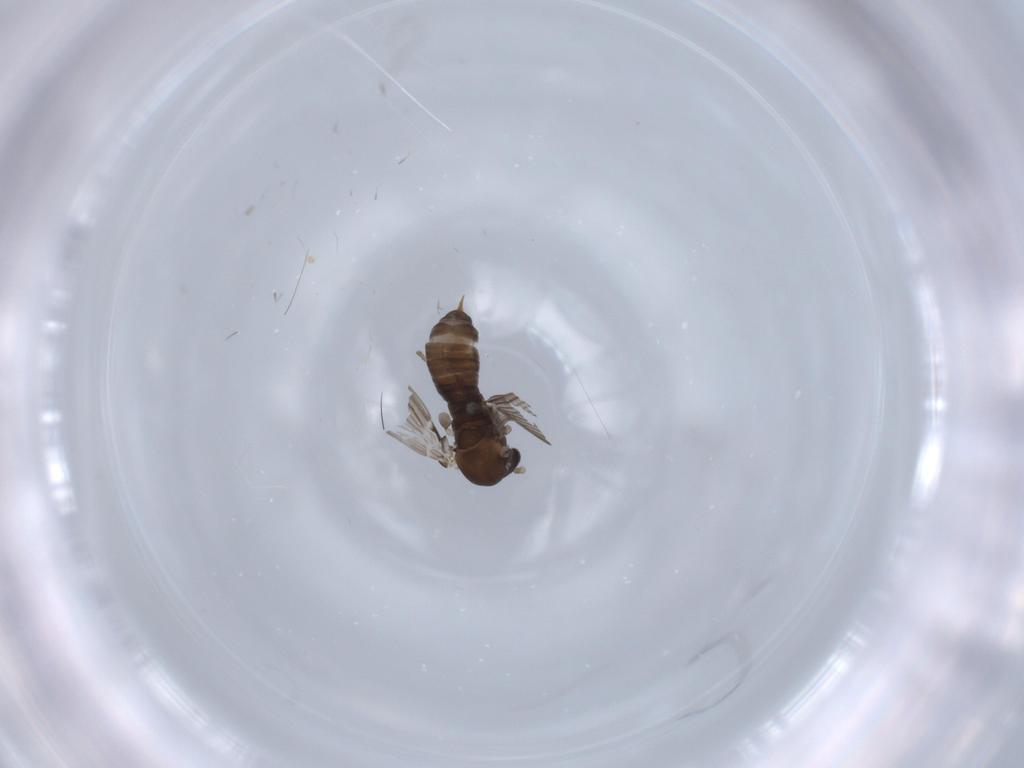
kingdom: Animalia
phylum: Arthropoda
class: Insecta
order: Diptera
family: Psychodidae
